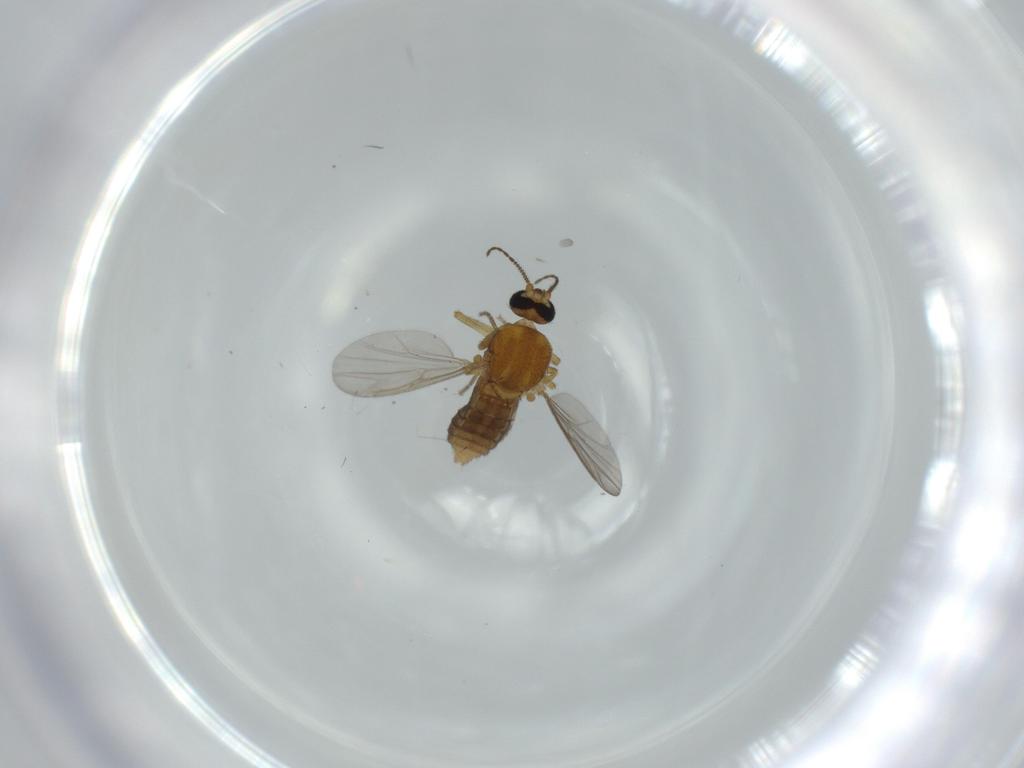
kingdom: Animalia
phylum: Arthropoda
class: Insecta
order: Diptera
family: Ceratopogonidae
